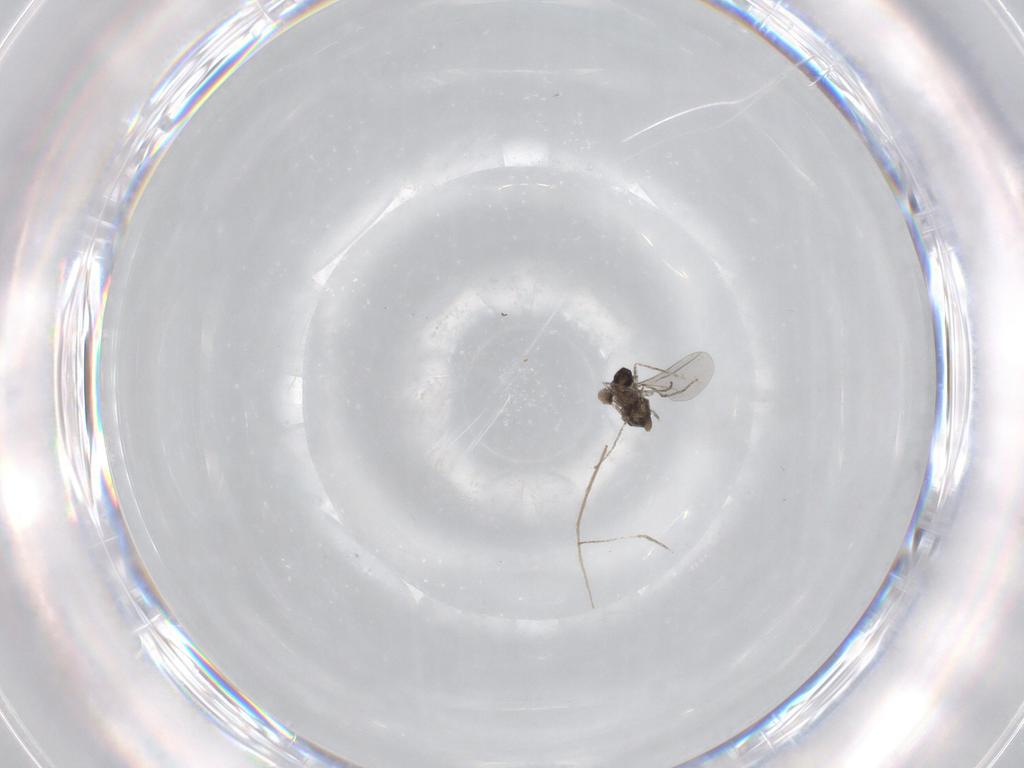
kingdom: Animalia
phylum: Arthropoda
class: Insecta
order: Diptera
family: Cecidomyiidae
